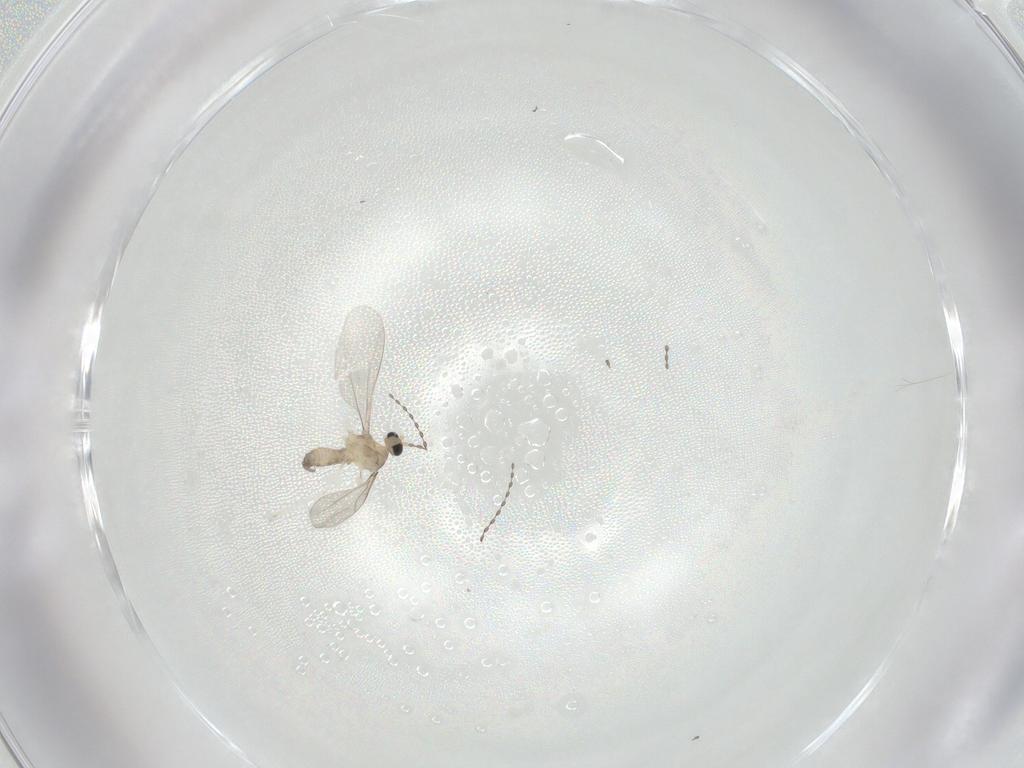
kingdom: Animalia
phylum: Arthropoda
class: Insecta
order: Diptera
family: Cecidomyiidae
